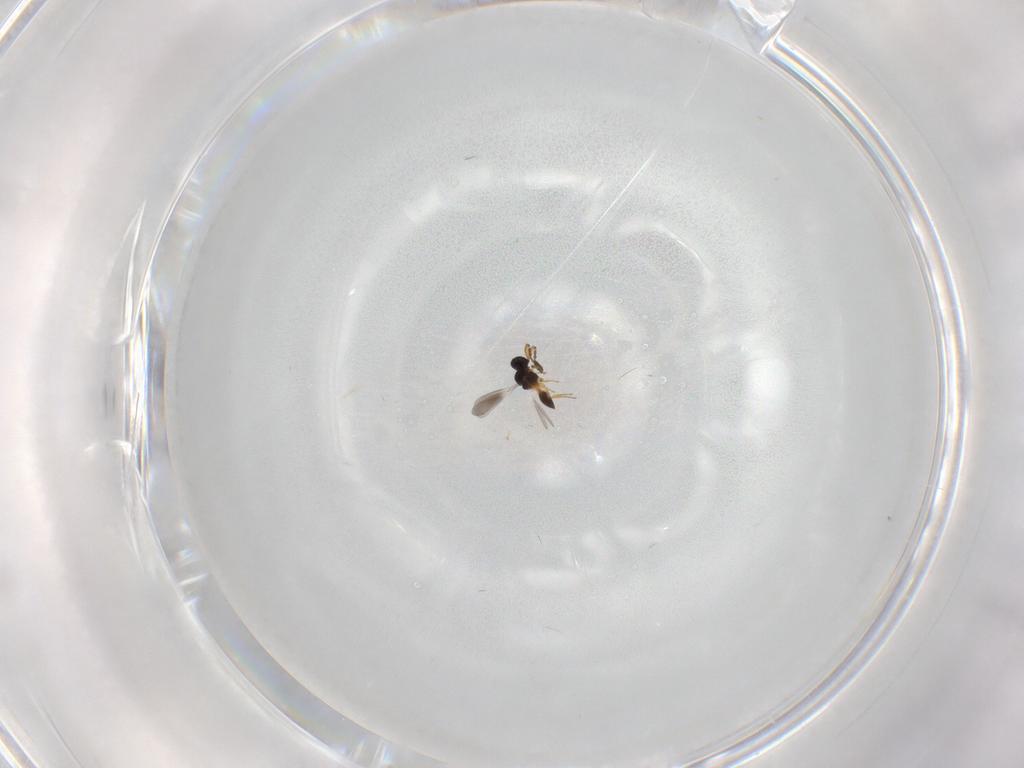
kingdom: Animalia
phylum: Arthropoda
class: Insecta
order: Hymenoptera
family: Platygastridae
